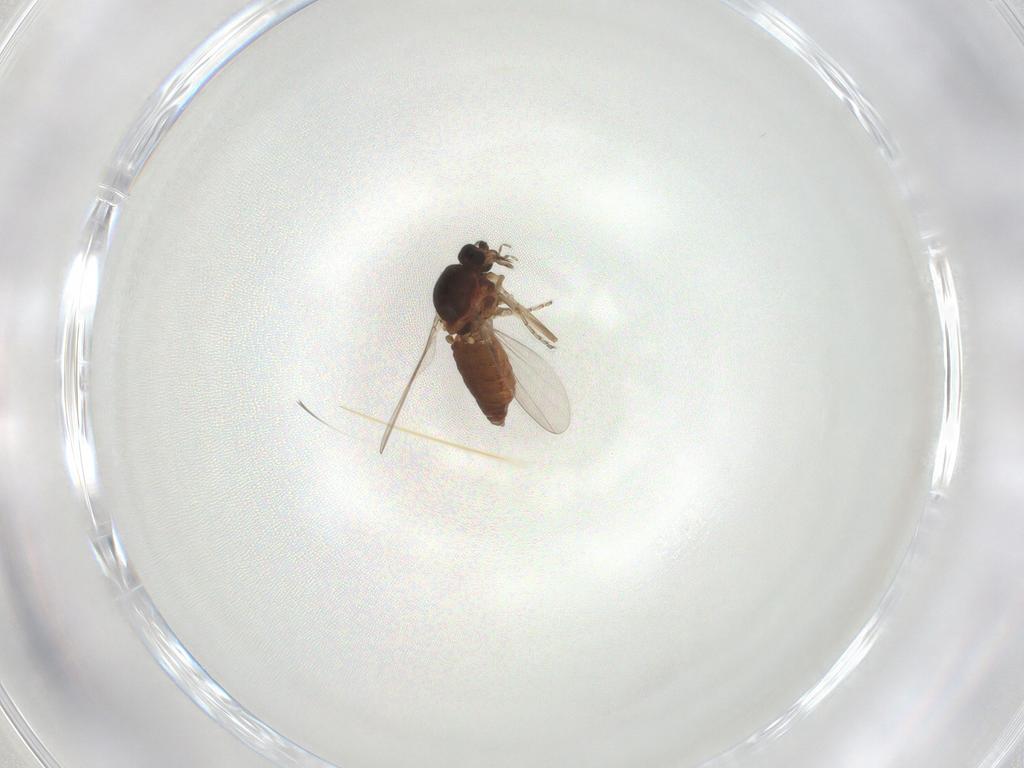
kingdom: Animalia
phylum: Arthropoda
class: Insecta
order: Diptera
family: Ceratopogonidae
